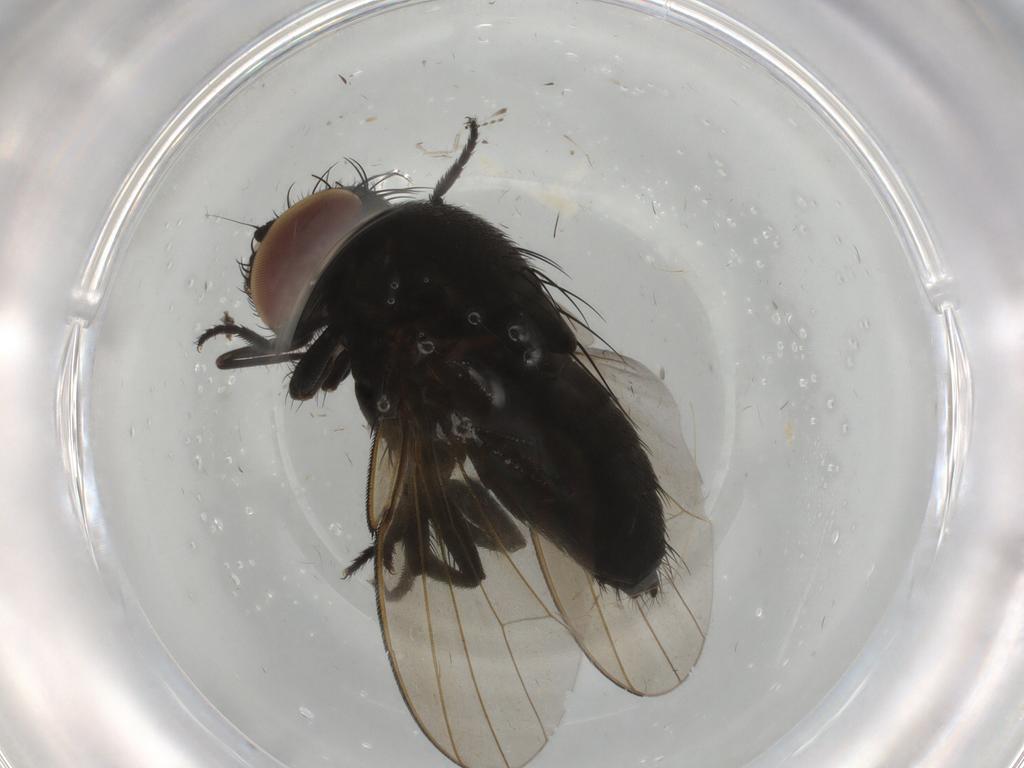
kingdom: Animalia
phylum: Arthropoda
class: Insecta
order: Diptera
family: Milichiidae
